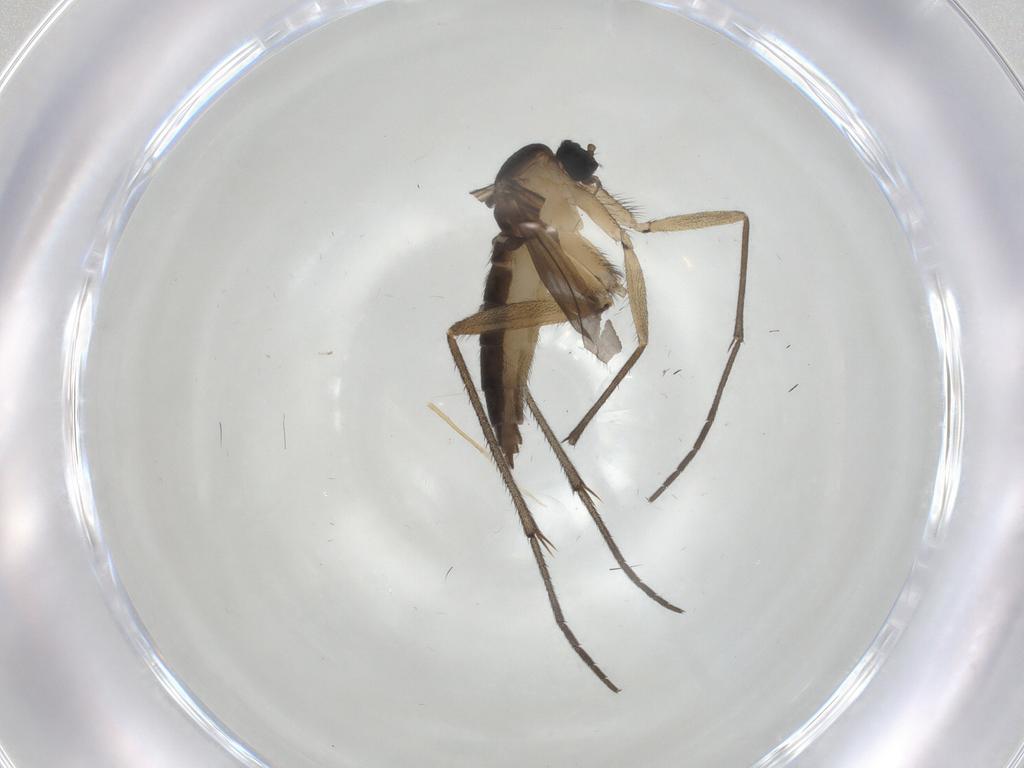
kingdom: Animalia
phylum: Arthropoda
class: Insecta
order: Diptera
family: Sciaridae
